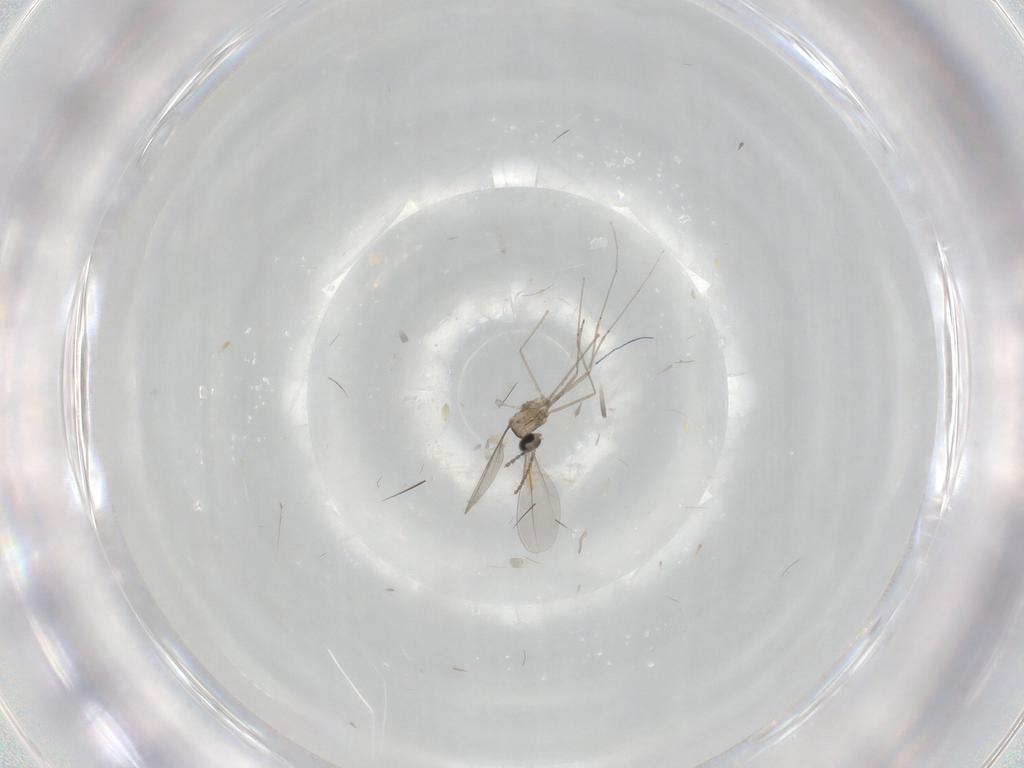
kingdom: Animalia
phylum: Arthropoda
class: Insecta
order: Diptera
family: Cecidomyiidae
